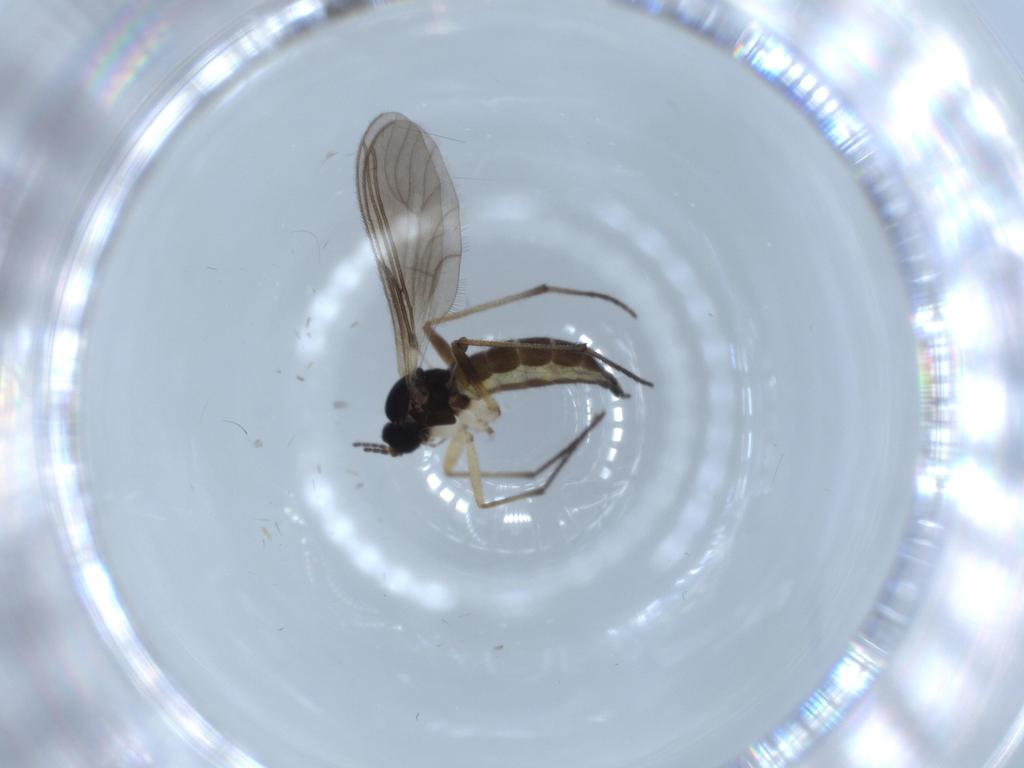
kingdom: Animalia
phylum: Arthropoda
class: Insecta
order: Diptera
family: Sciaridae
